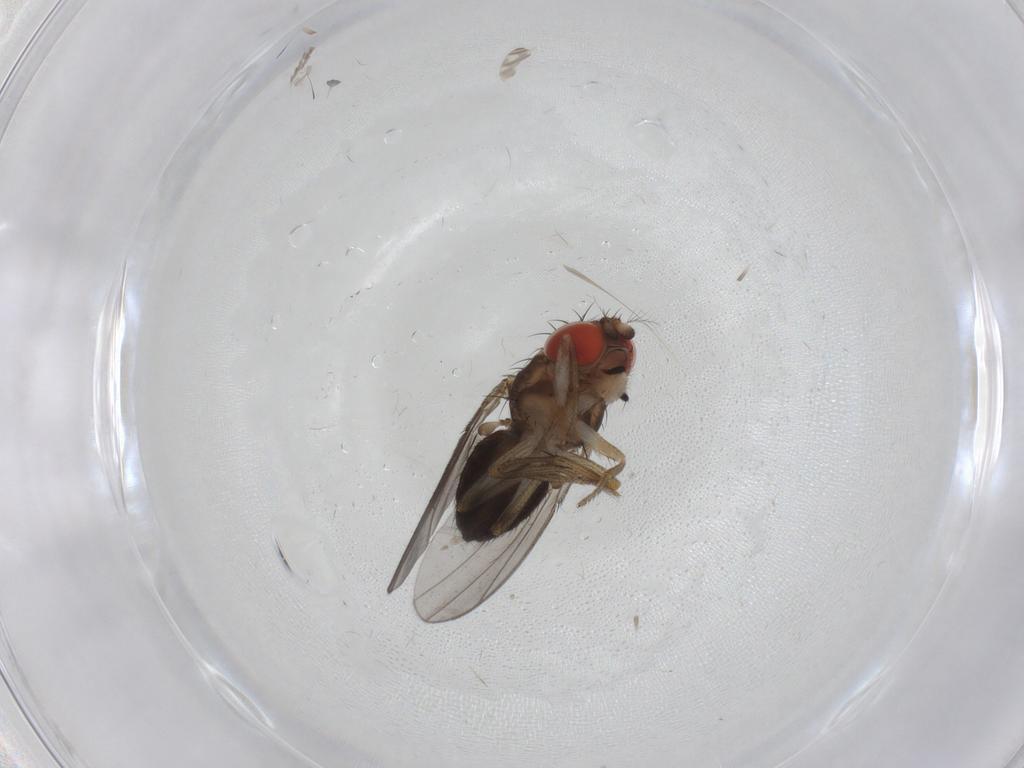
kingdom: Animalia
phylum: Arthropoda
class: Insecta
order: Diptera
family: Drosophilidae
